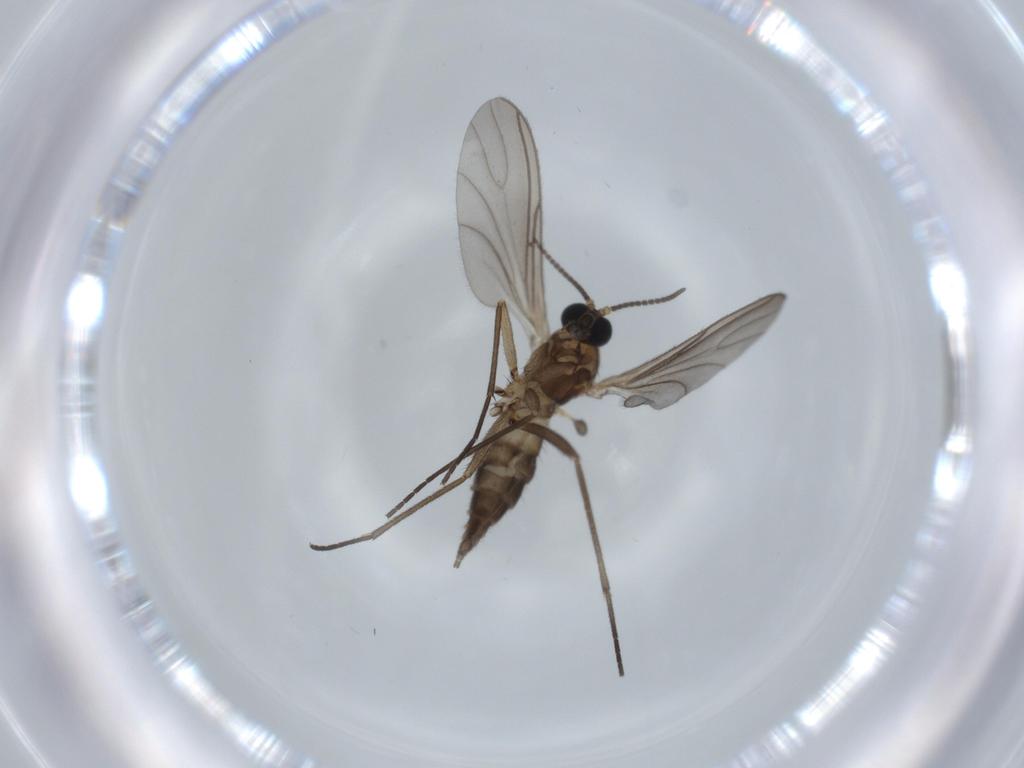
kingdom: Animalia
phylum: Arthropoda
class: Insecta
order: Diptera
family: Sciaridae
